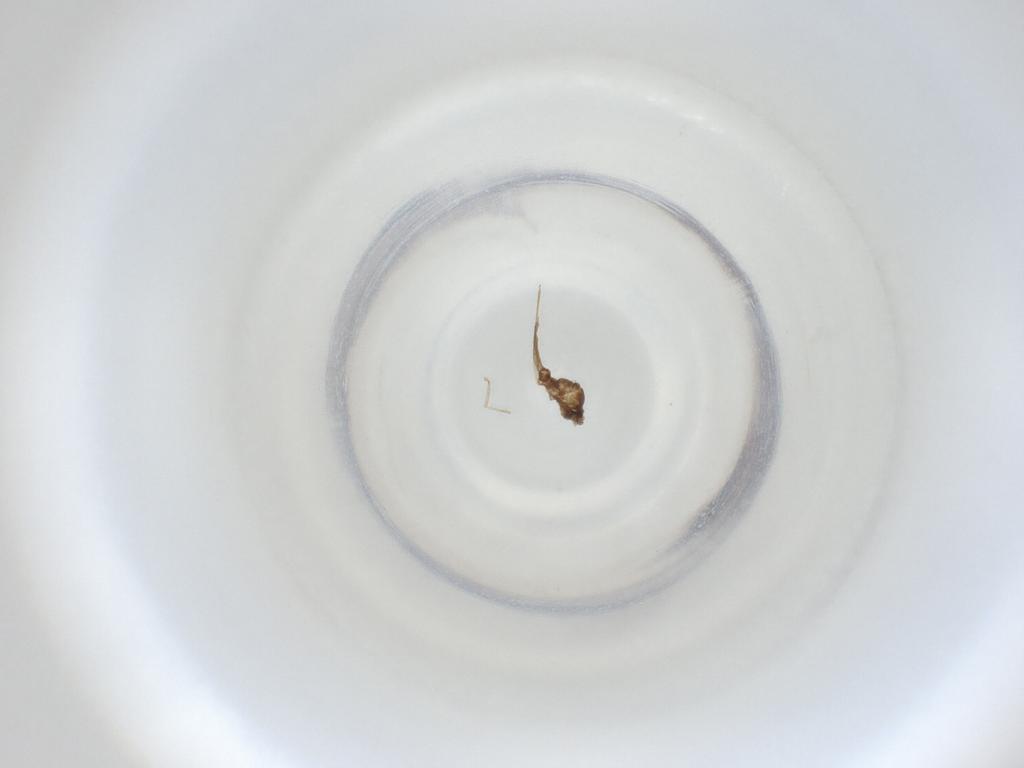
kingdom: Animalia
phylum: Arthropoda
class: Insecta
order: Diptera
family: Cecidomyiidae
